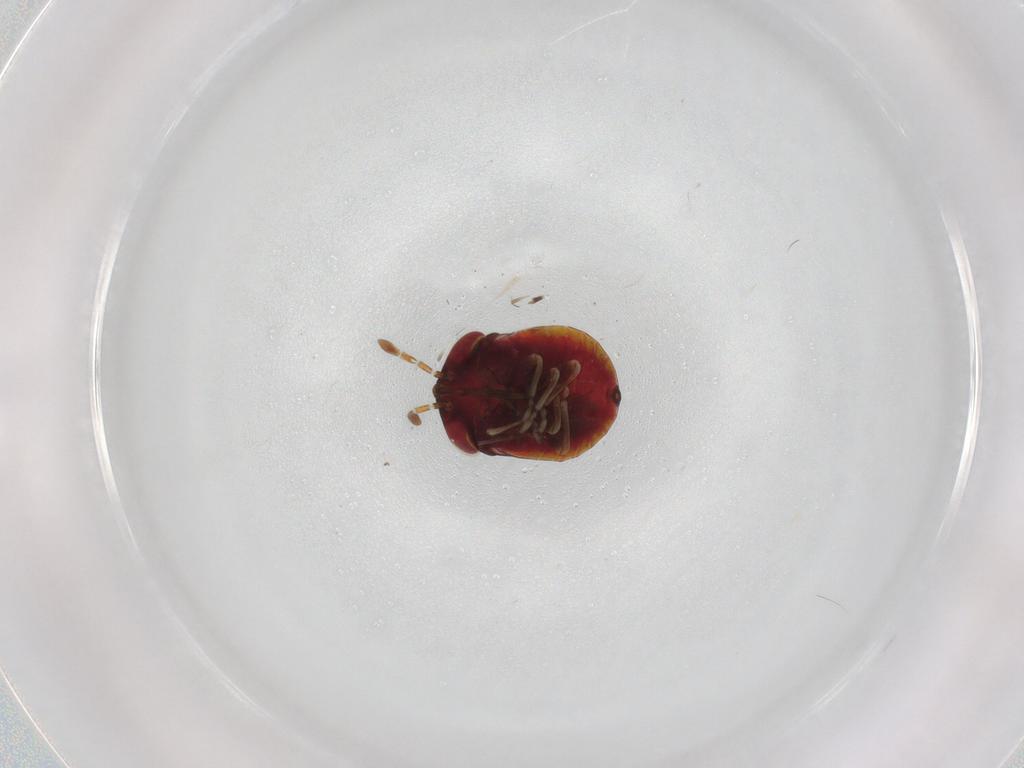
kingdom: Animalia
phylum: Arthropoda
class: Insecta
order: Hemiptera
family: Geocoridae
